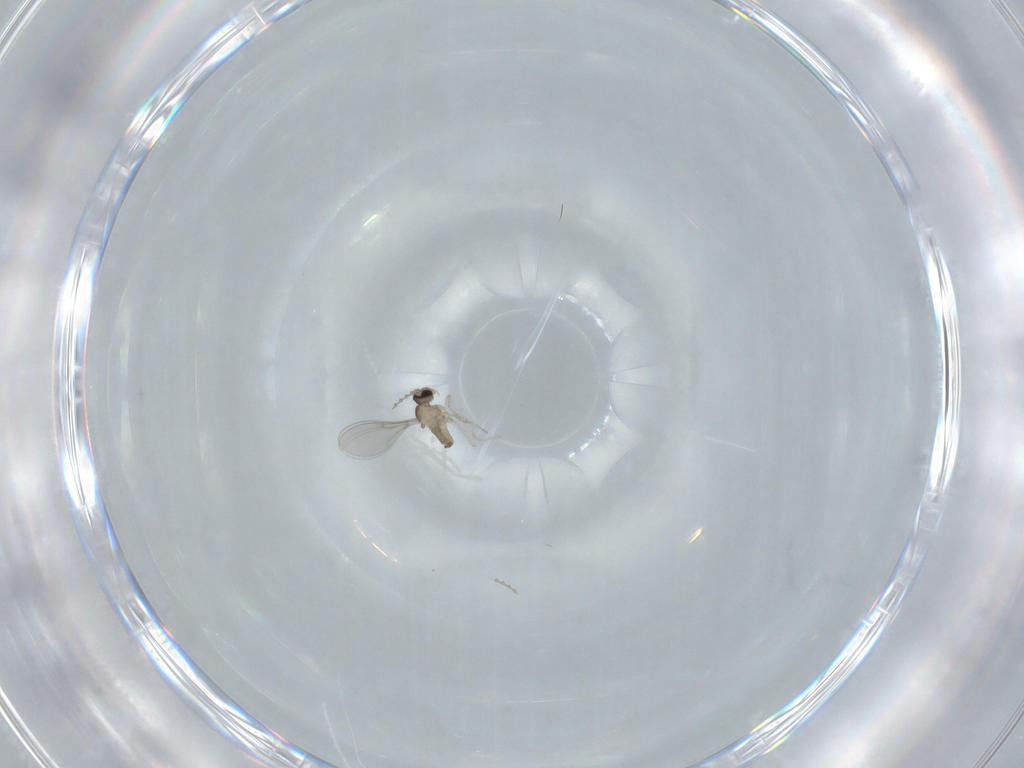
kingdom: Animalia
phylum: Arthropoda
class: Insecta
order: Diptera
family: Cecidomyiidae
